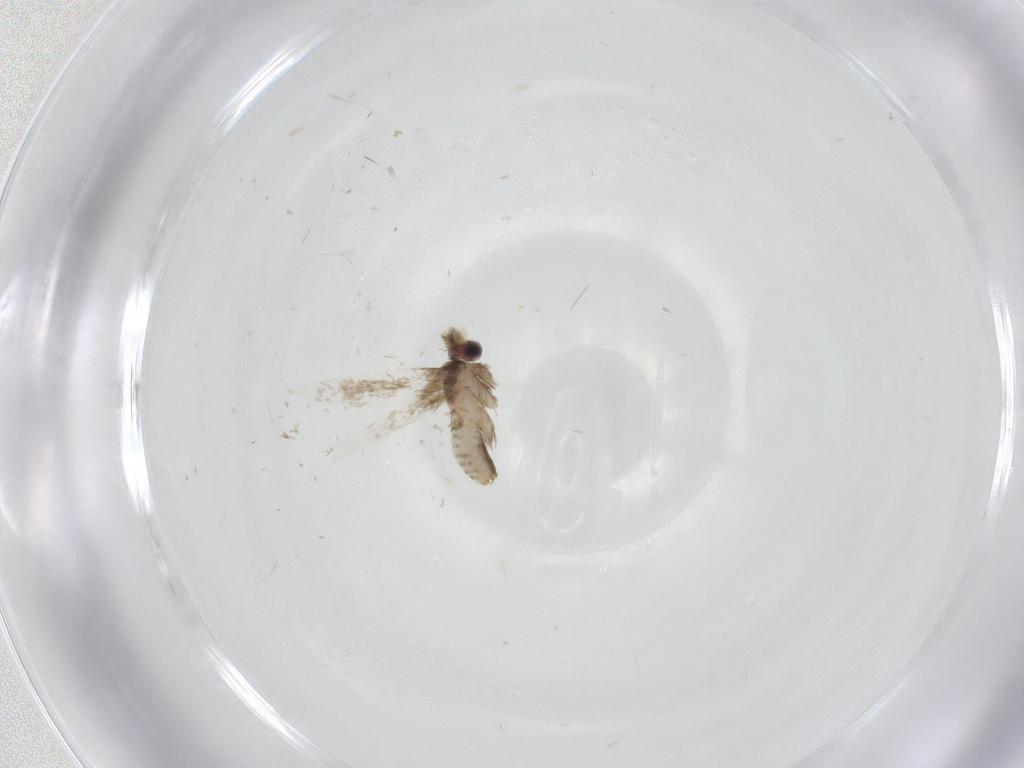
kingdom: Animalia
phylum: Arthropoda
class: Insecta
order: Lepidoptera
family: Nepticulidae
